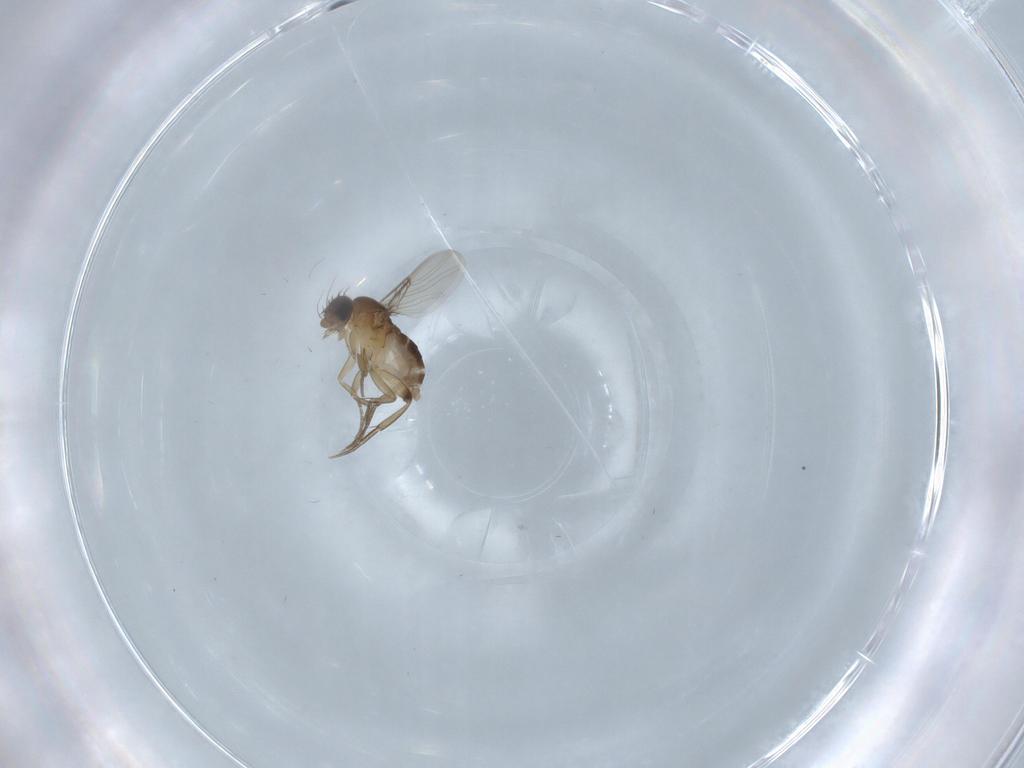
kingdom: Animalia
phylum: Arthropoda
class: Insecta
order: Diptera
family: Phoridae
